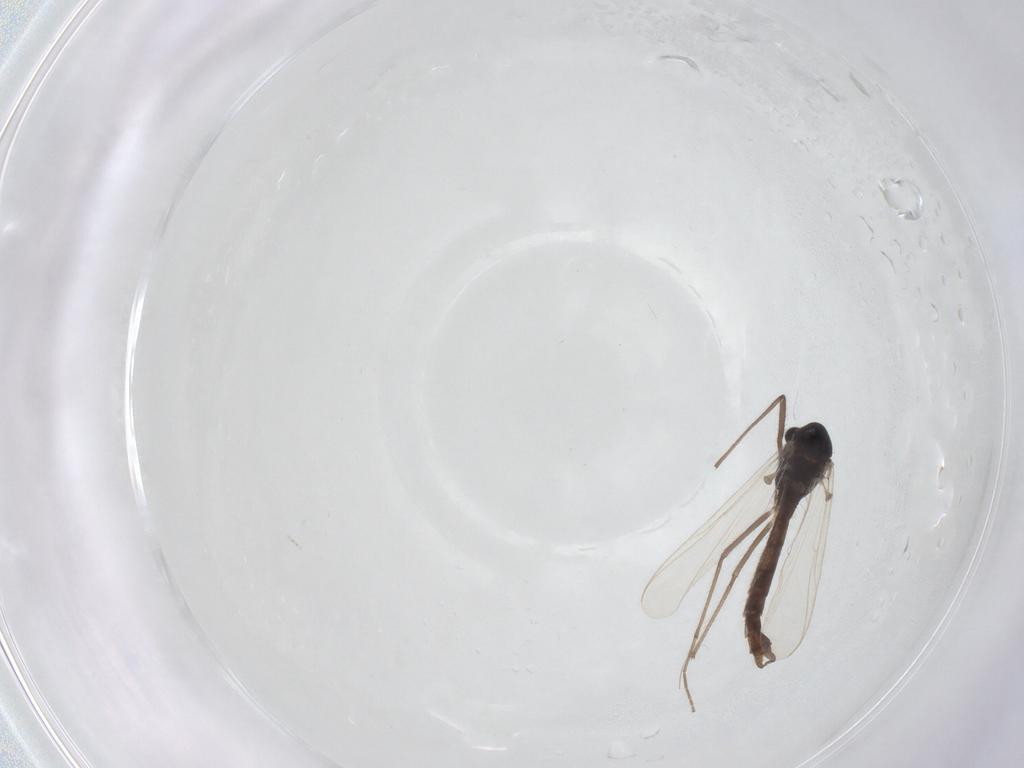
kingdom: Animalia
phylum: Arthropoda
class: Insecta
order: Diptera
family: Chironomidae
